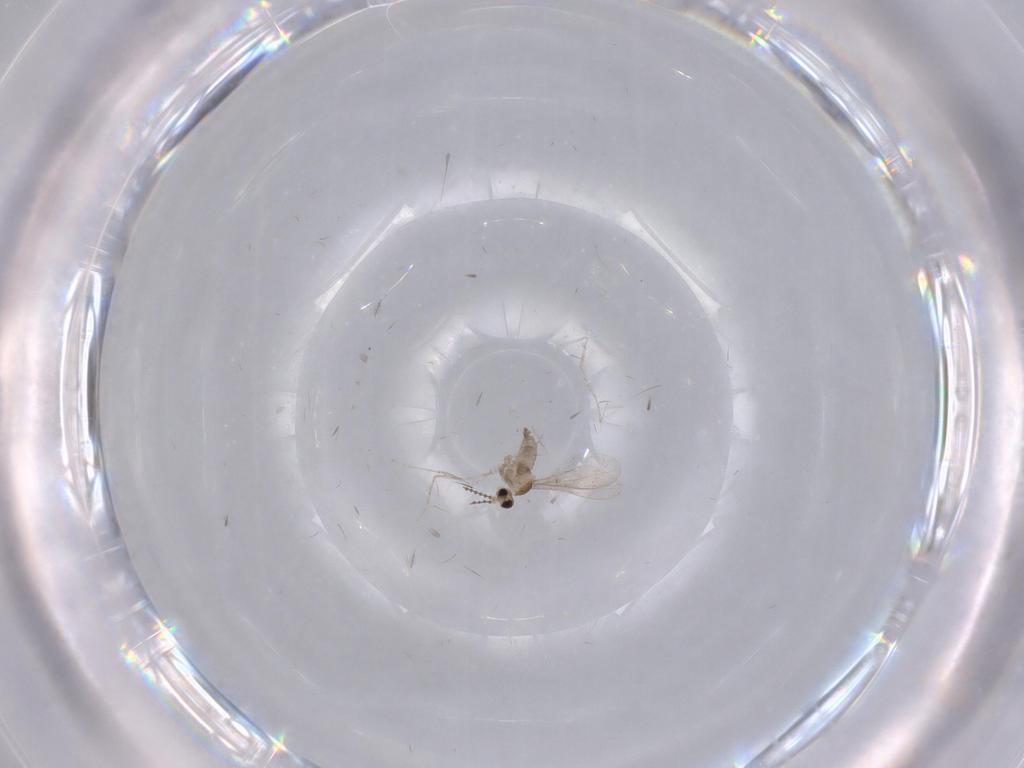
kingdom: Animalia
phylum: Arthropoda
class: Insecta
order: Diptera
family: Cecidomyiidae
